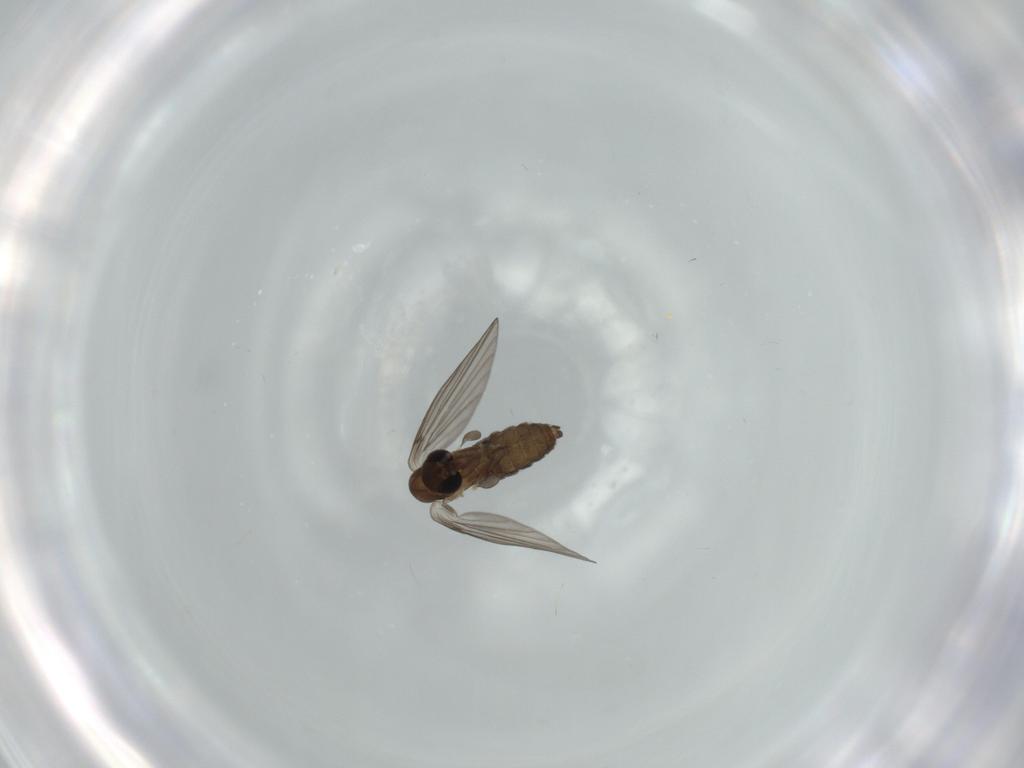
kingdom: Animalia
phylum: Arthropoda
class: Insecta
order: Diptera
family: Psychodidae
